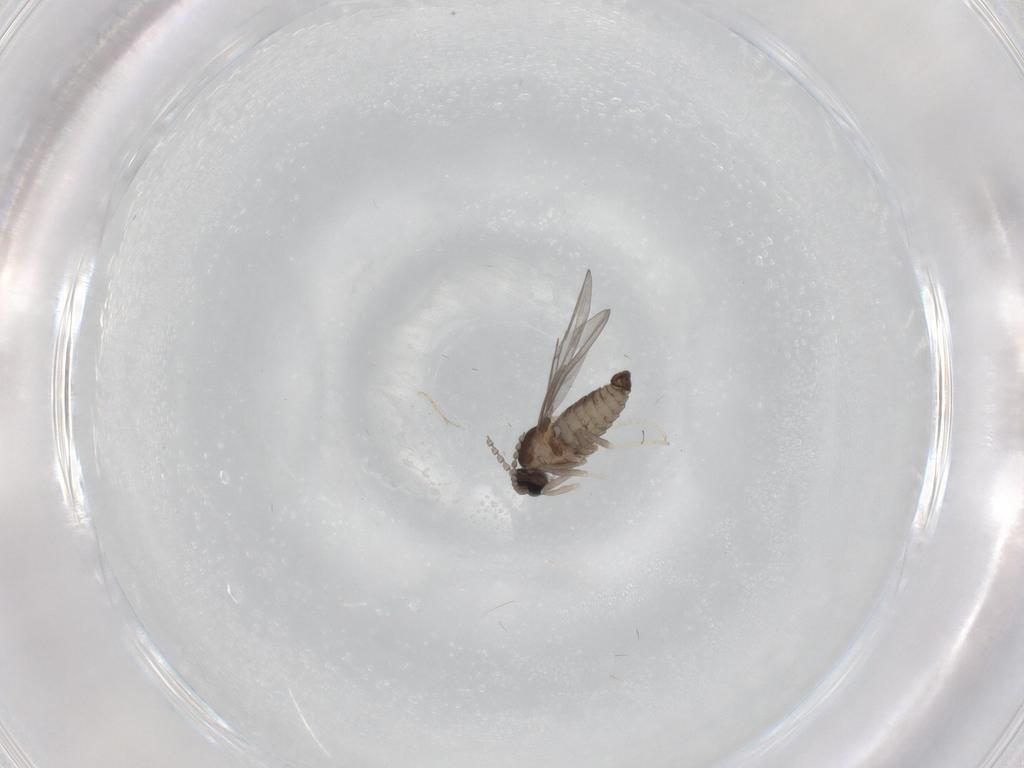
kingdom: Animalia
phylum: Arthropoda
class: Insecta
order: Diptera
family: Cecidomyiidae
